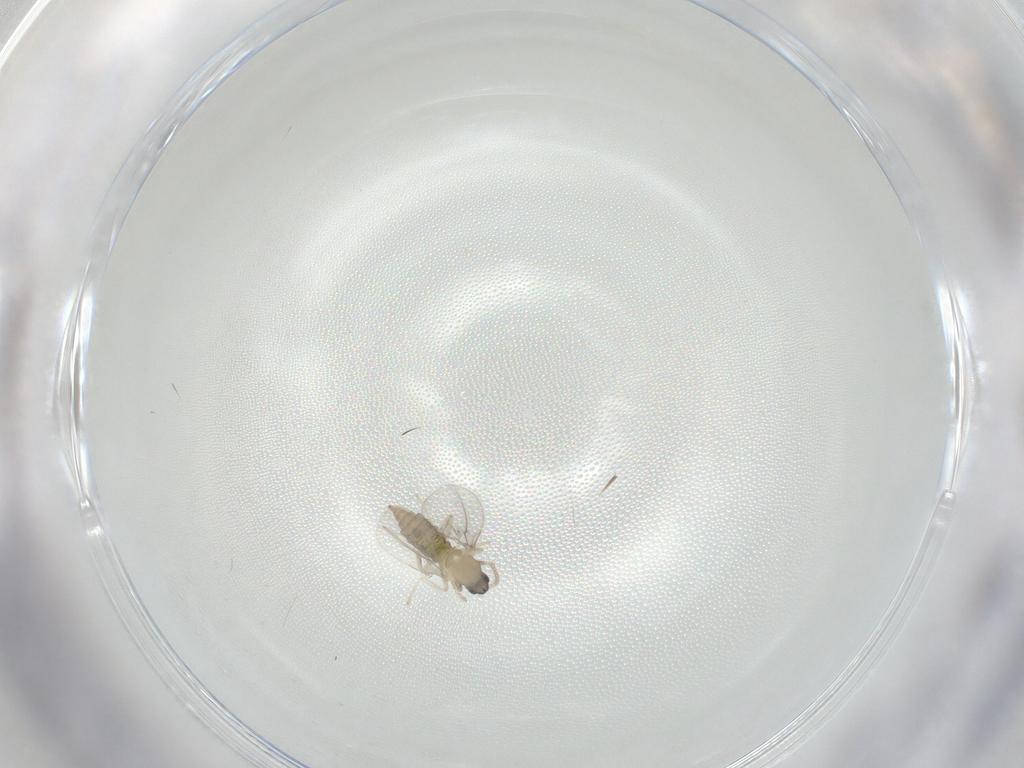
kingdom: Animalia
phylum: Arthropoda
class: Insecta
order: Diptera
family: Cecidomyiidae
